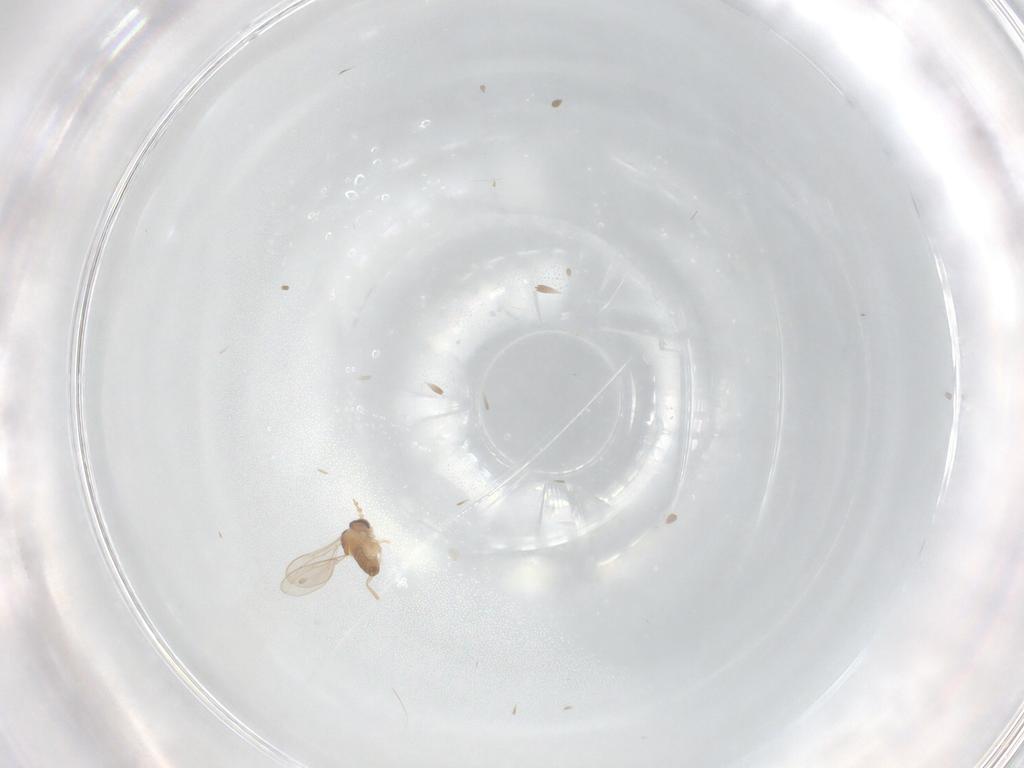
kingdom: Animalia
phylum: Arthropoda
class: Insecta
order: Diptera
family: Cecidomyiidae
